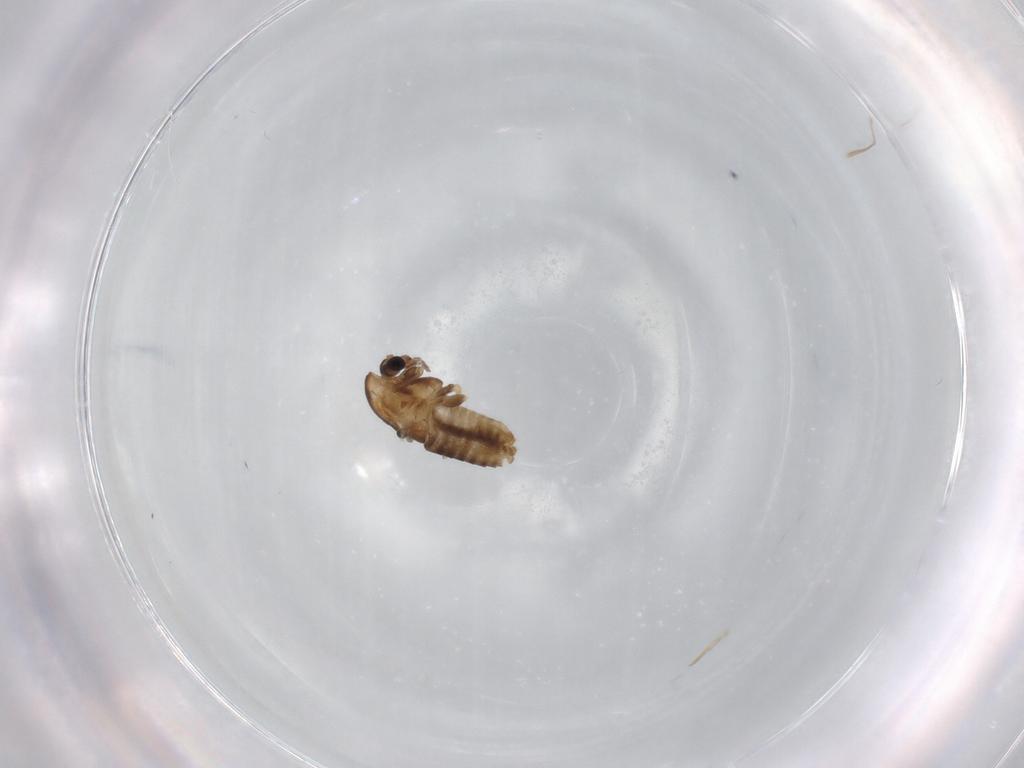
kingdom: Animalia
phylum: Arthropoda
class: Insecta
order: Diptera
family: Chironomidae
